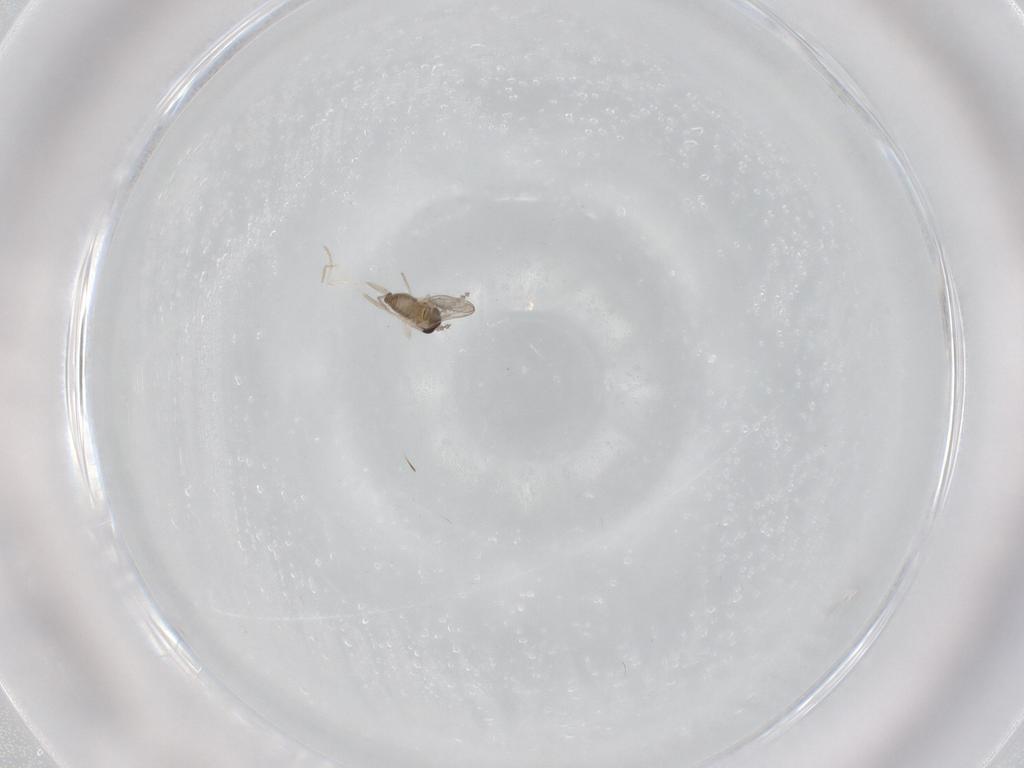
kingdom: Animalia
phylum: Arthropoda
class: Insecta
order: Diptera
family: Cecidomyiidae
